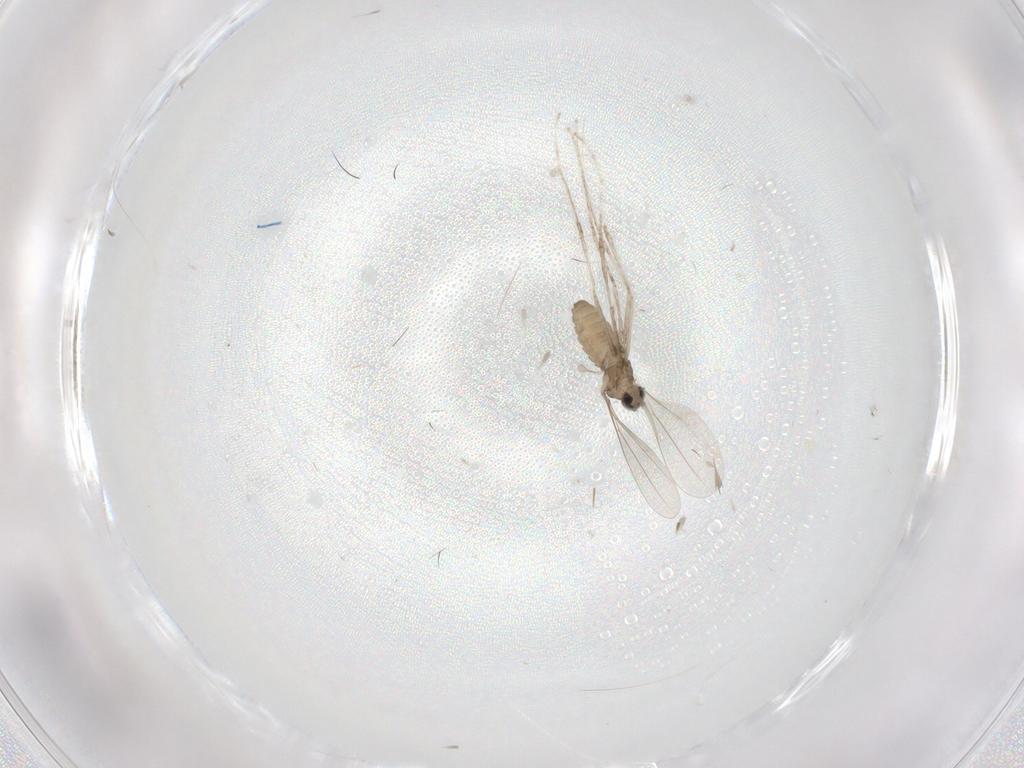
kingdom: Animalia
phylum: Arthropoda
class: Insecta
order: Diptera
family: Cecidomyiidae
